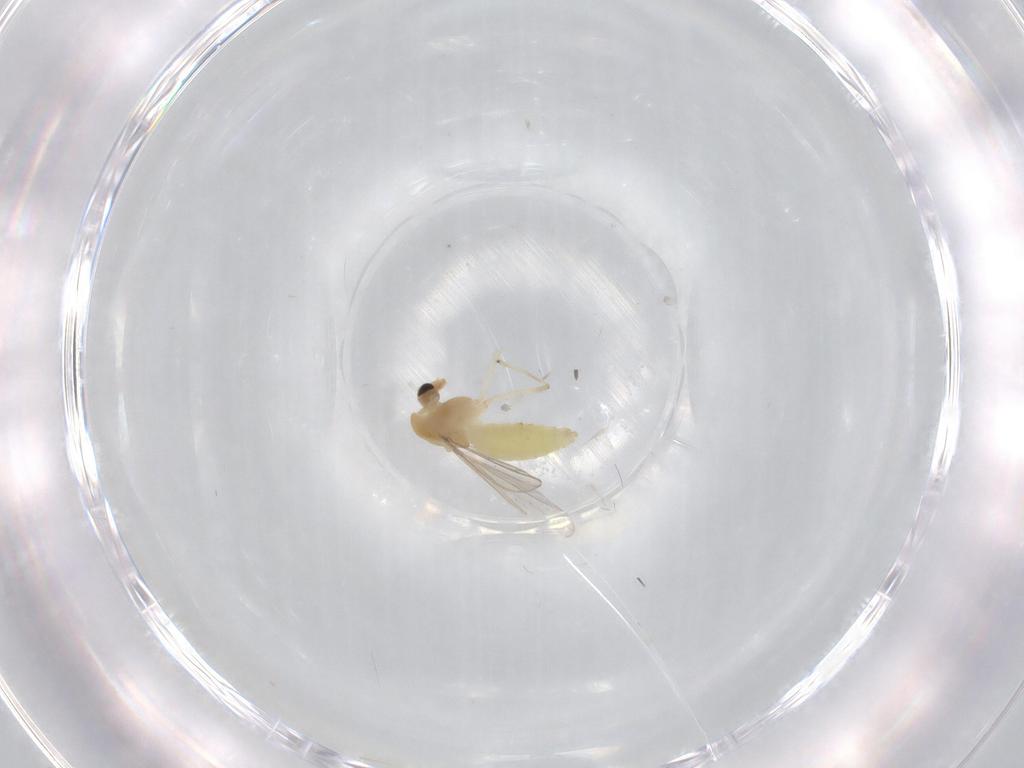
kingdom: Animalia
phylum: Arthropoda
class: Insecta
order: Diptera
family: Chironomidae
